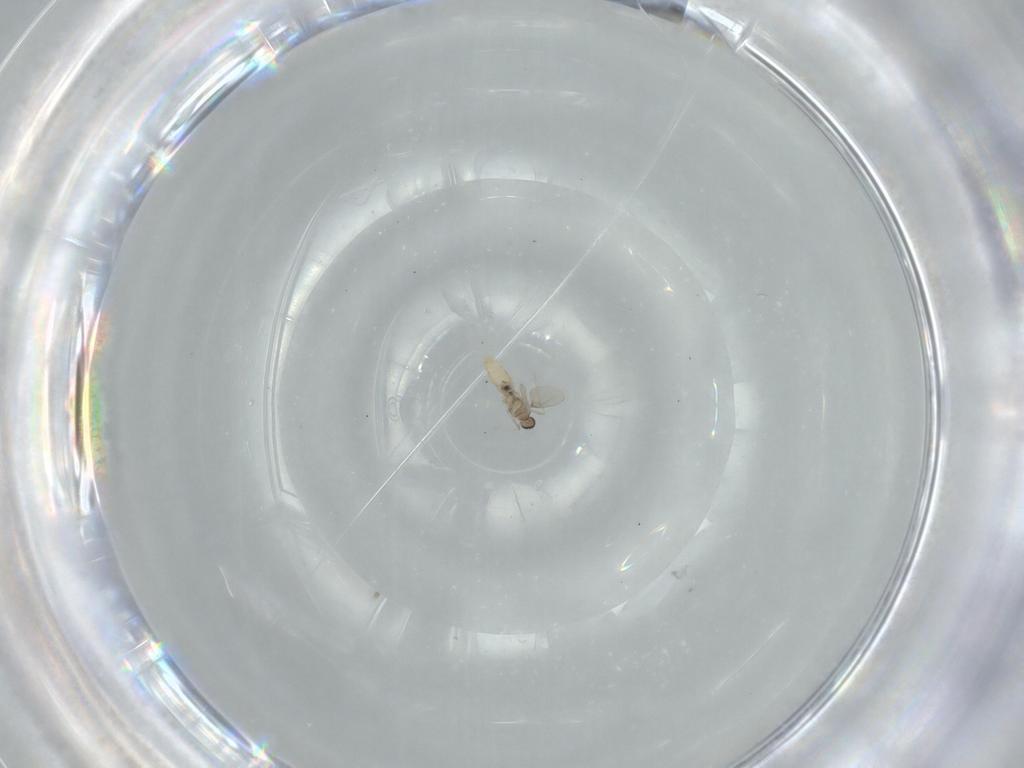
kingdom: Animalia
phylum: Arthropoda
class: Insecta
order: Diptera
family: Cecidomyiidae
